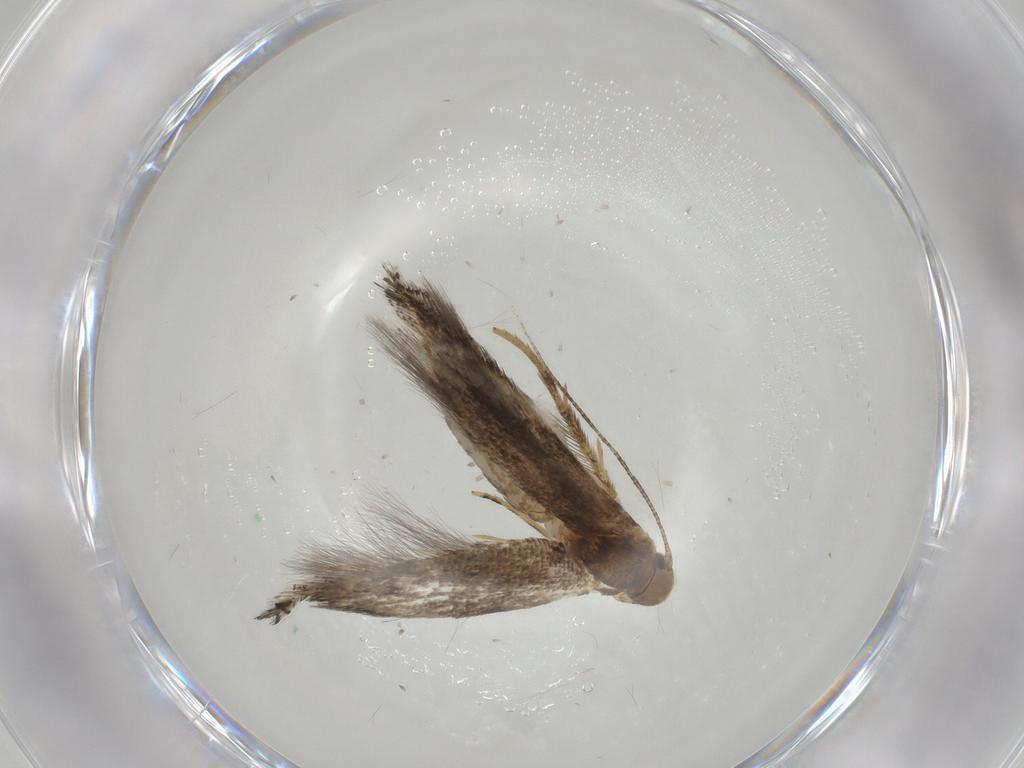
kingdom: Animalia
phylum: Arthropoda
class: Insecta
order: Lepidoptera
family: Elachistidae
